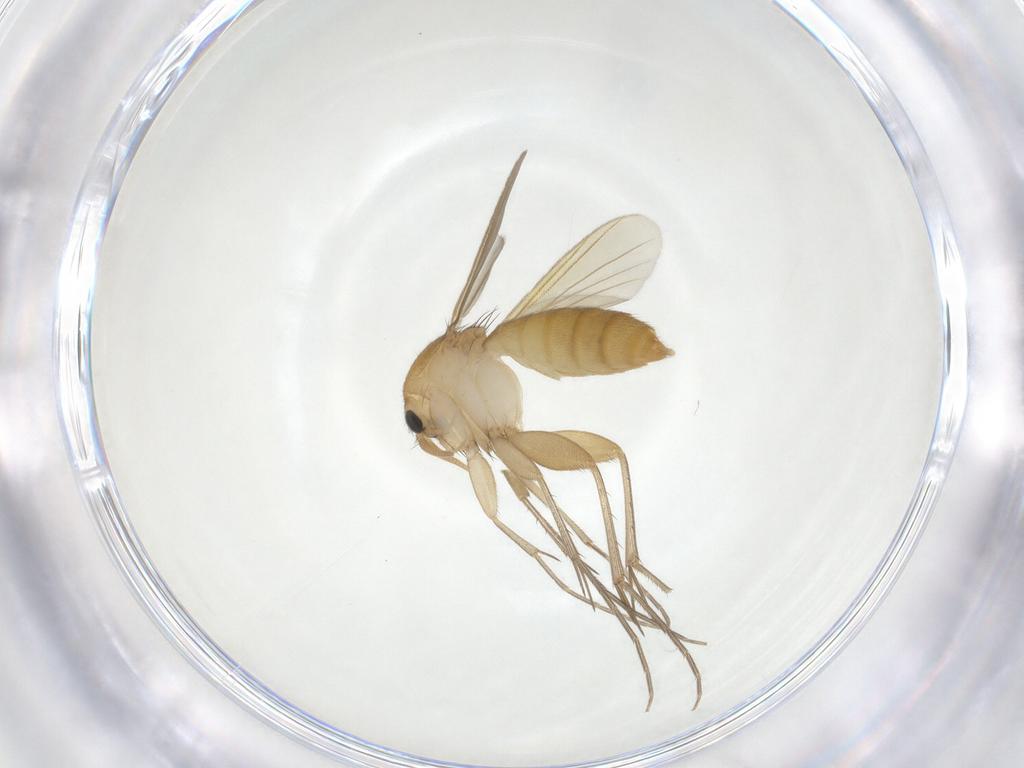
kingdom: Animalia
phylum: Arthropoda
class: Insecta
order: Diptera
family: Mycetophilidae
